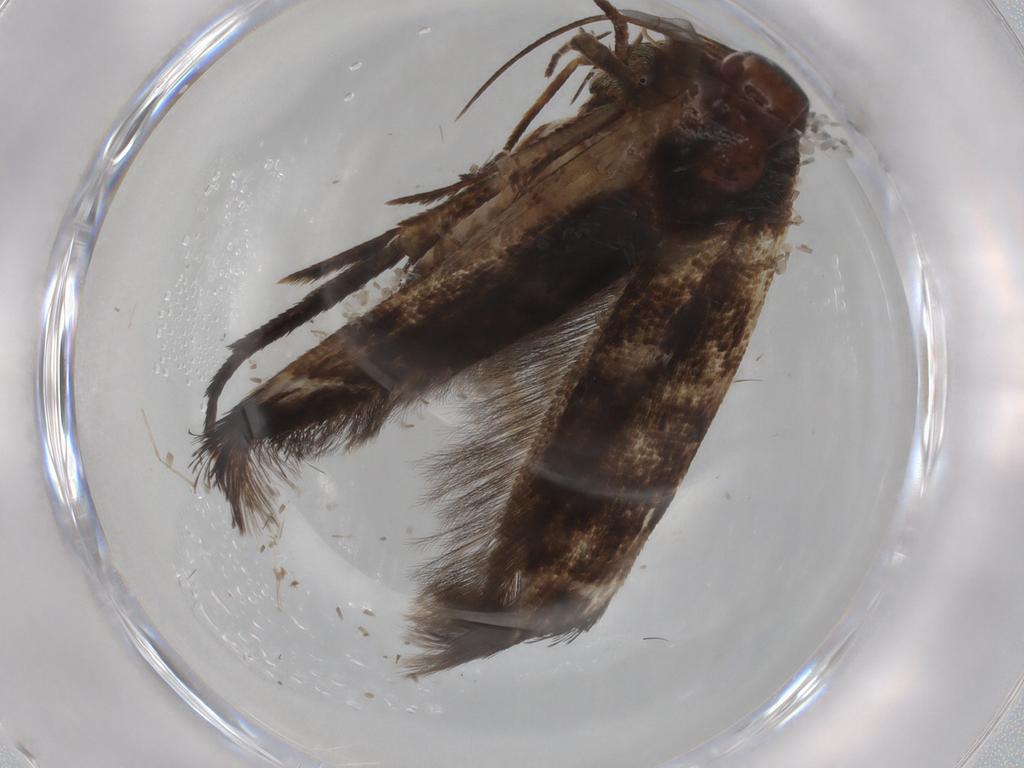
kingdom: Animalia
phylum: Arthropoda
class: Insecta
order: Lepidoptera
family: Cosmopterigidae
